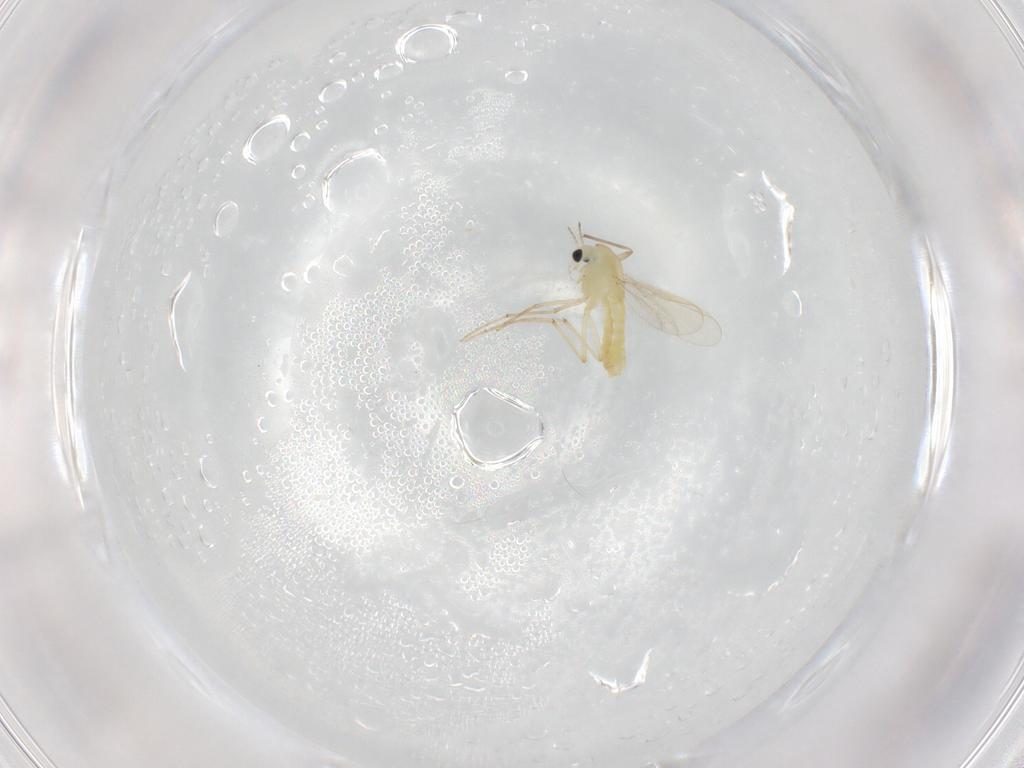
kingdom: Animalia
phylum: Arthropoda
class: Insecta
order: Diptera
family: Chironomidae
